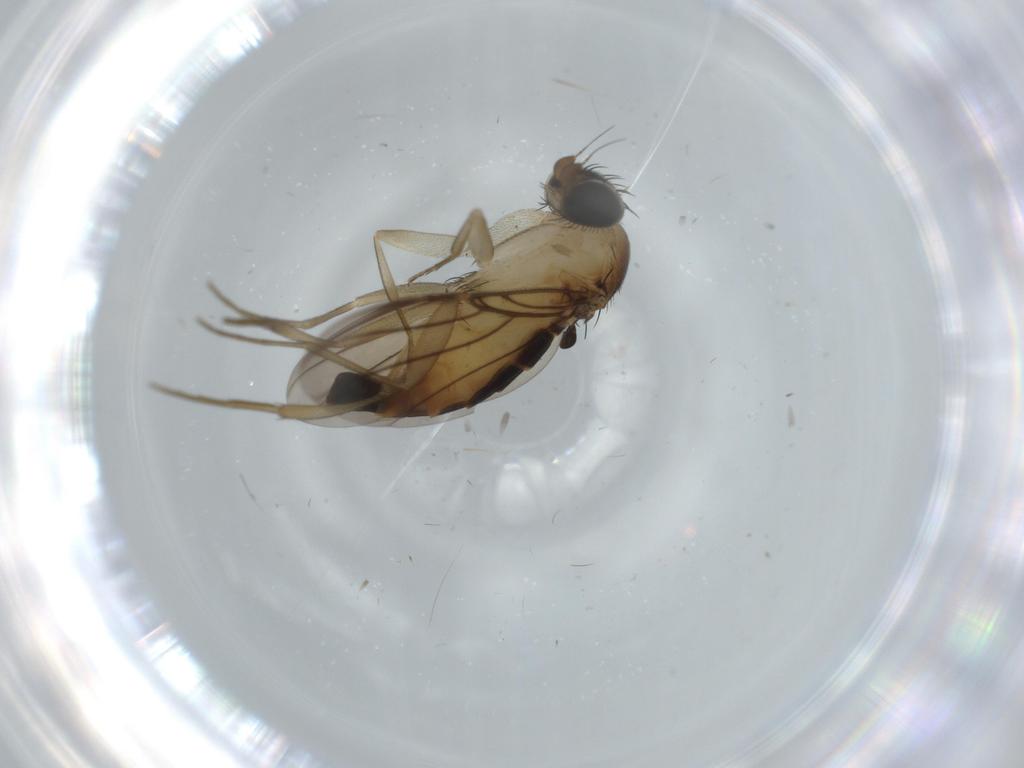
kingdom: Animalia
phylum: Arthropoda
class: Insecta
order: Diptera
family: Phoridae
